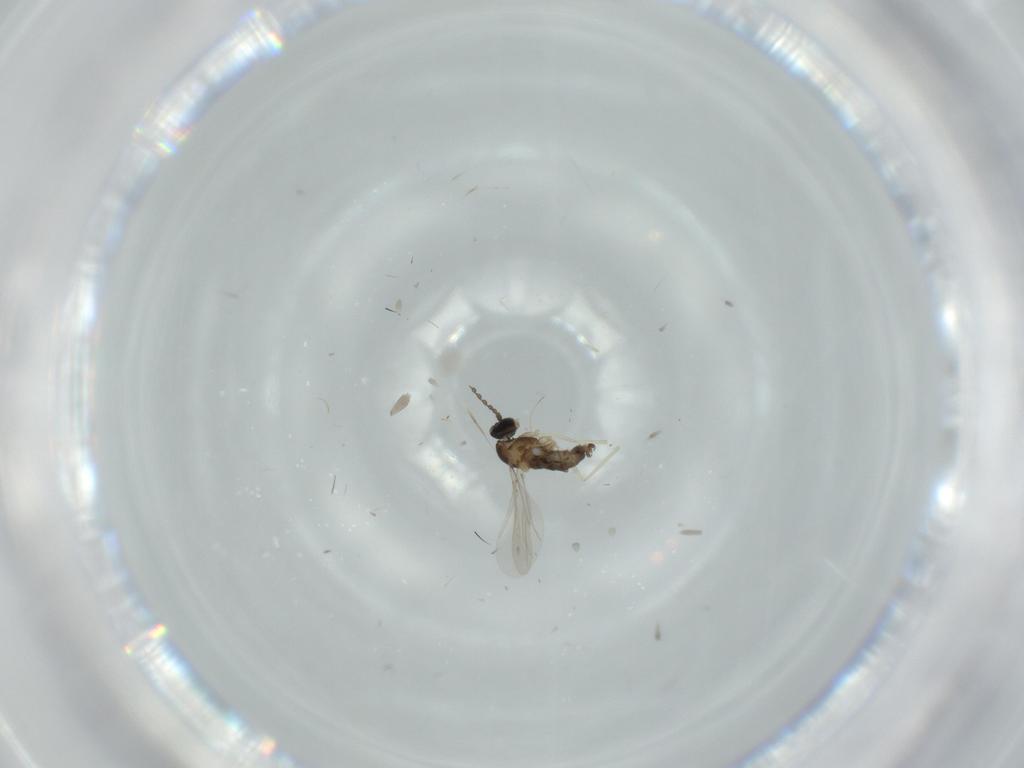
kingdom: Animalia
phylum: Arthropoda
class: Insecta
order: Diptera
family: Cecidomyiidae
